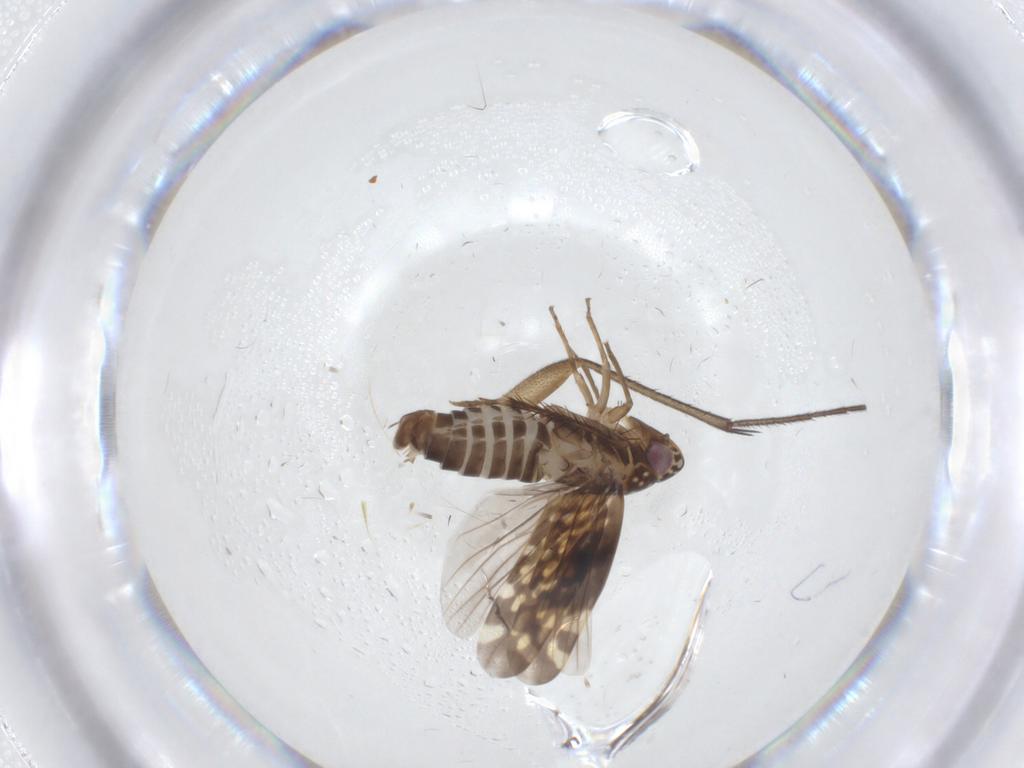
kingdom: Animalia
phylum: Arthropoda
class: Insecta
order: Hemiptera
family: Cicadellidae
